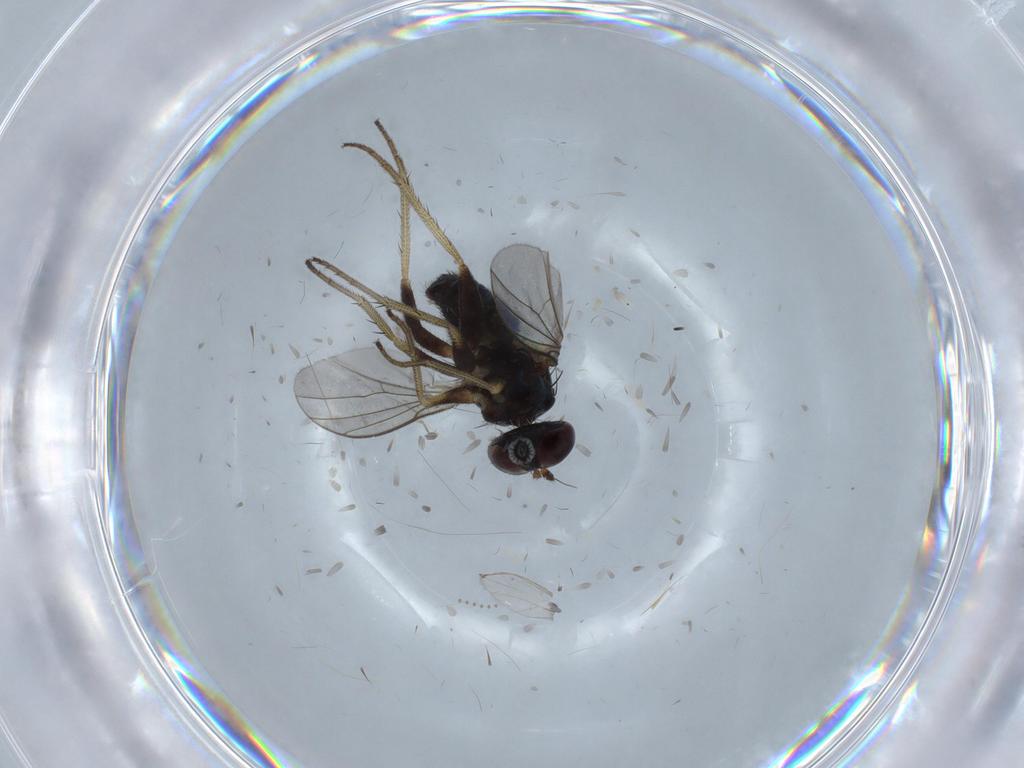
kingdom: Animalia
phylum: Arthropoda
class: Insecta
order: Diptera
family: Psychodidae
